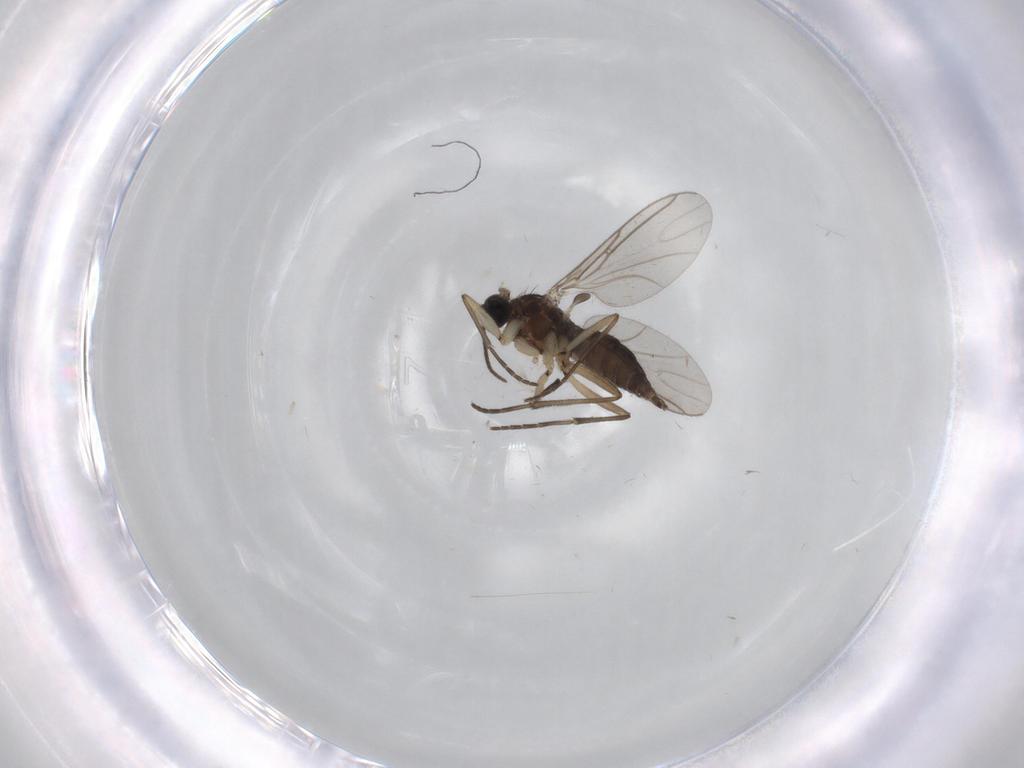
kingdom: Animalia
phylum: Arthropoda
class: Insecta
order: Diptera
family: Sciaridae
